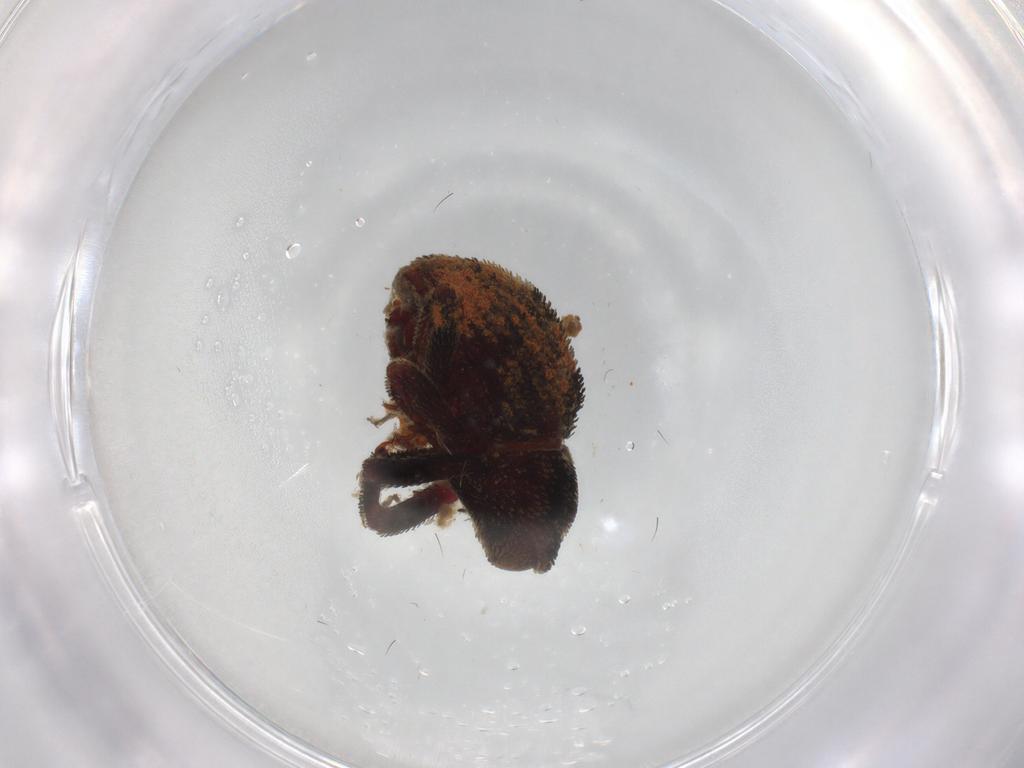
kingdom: Animalia
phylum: Arthropoda
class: Insecta
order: Coleoptera
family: Curculionidae
